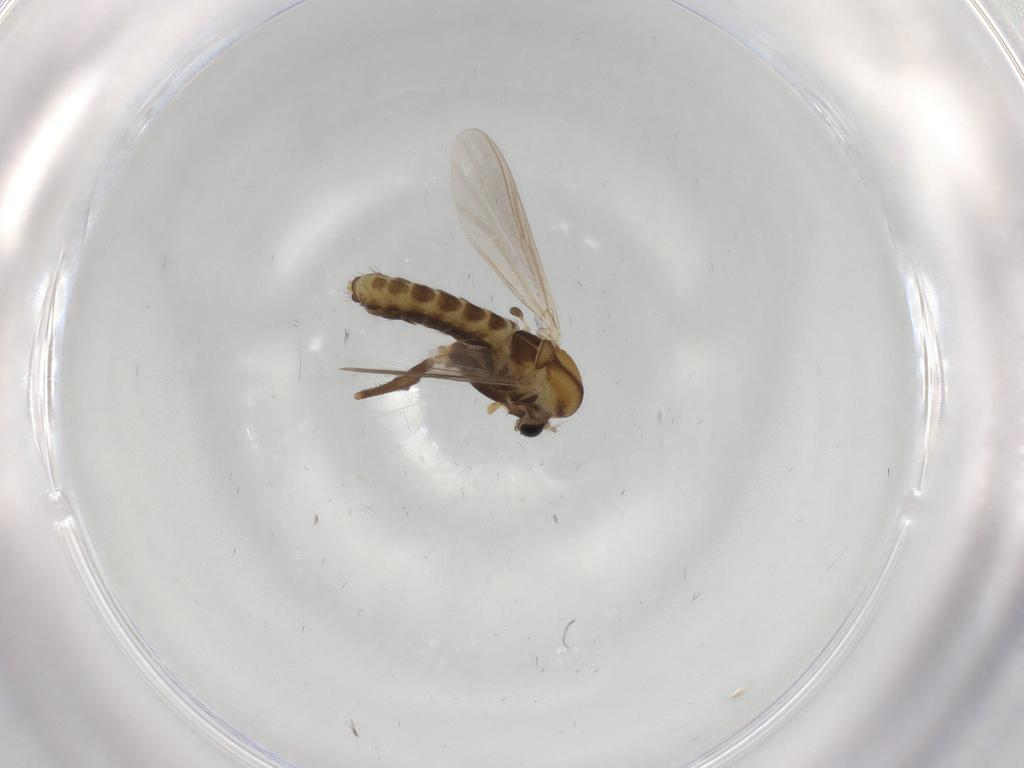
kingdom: Animalia
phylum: Arthropoda
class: Insecta
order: Diptera
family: Chironomidae
